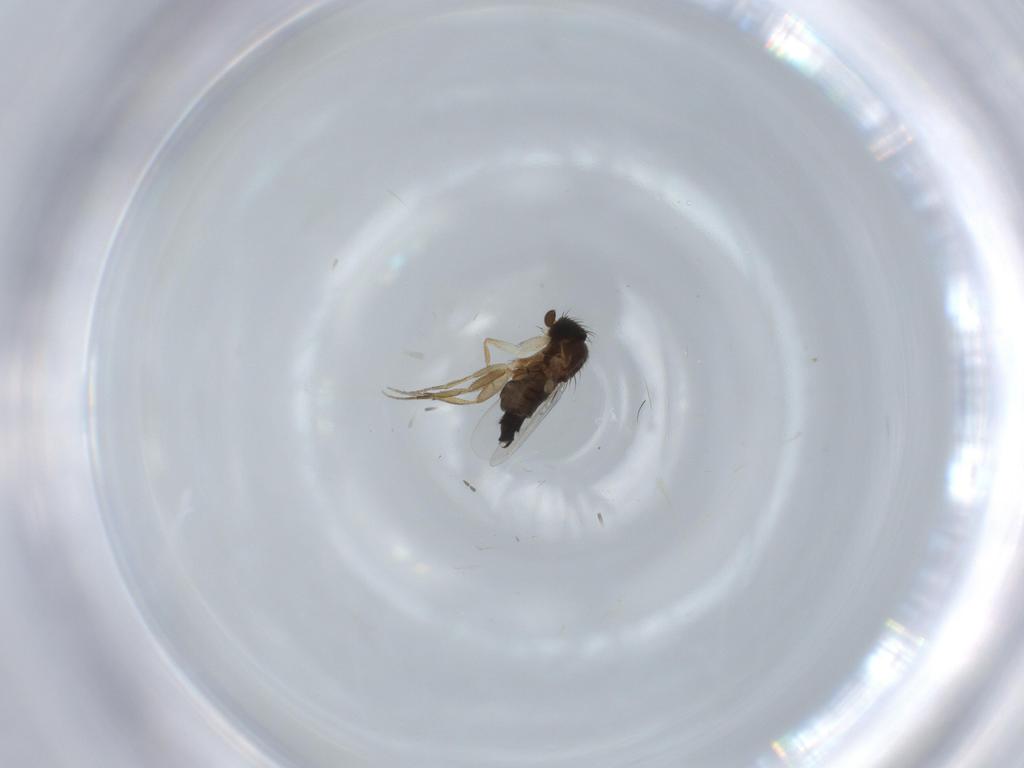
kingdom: Animalia
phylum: Arthropoda
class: Insecta
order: Diptera
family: Phoridae
